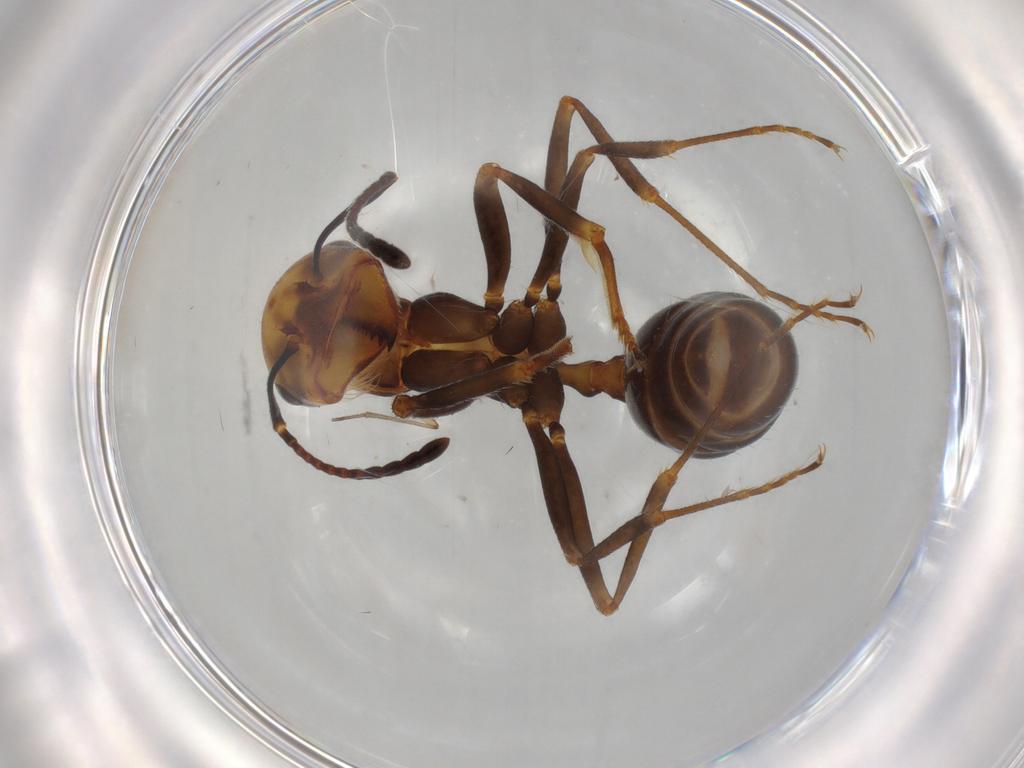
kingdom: Animalia
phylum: Arthropoda
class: Insecta
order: Hymenoptera
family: Formicidae
